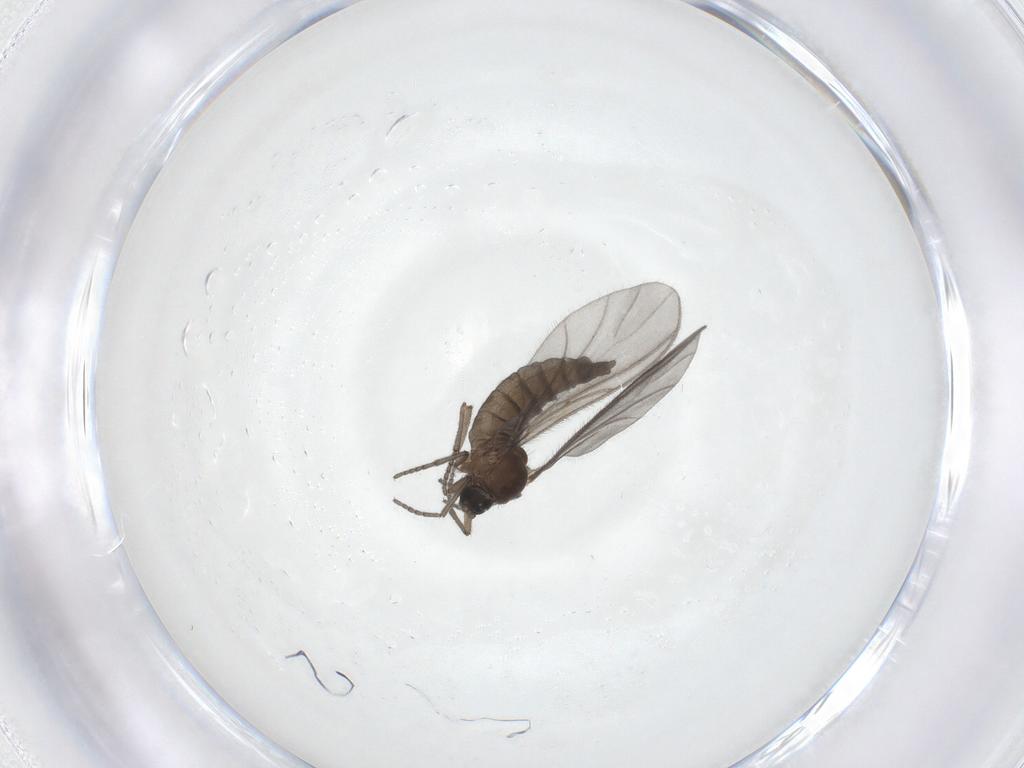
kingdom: Animalia
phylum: Arthropoda
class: Insecta
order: Diptera
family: Sciaridae
